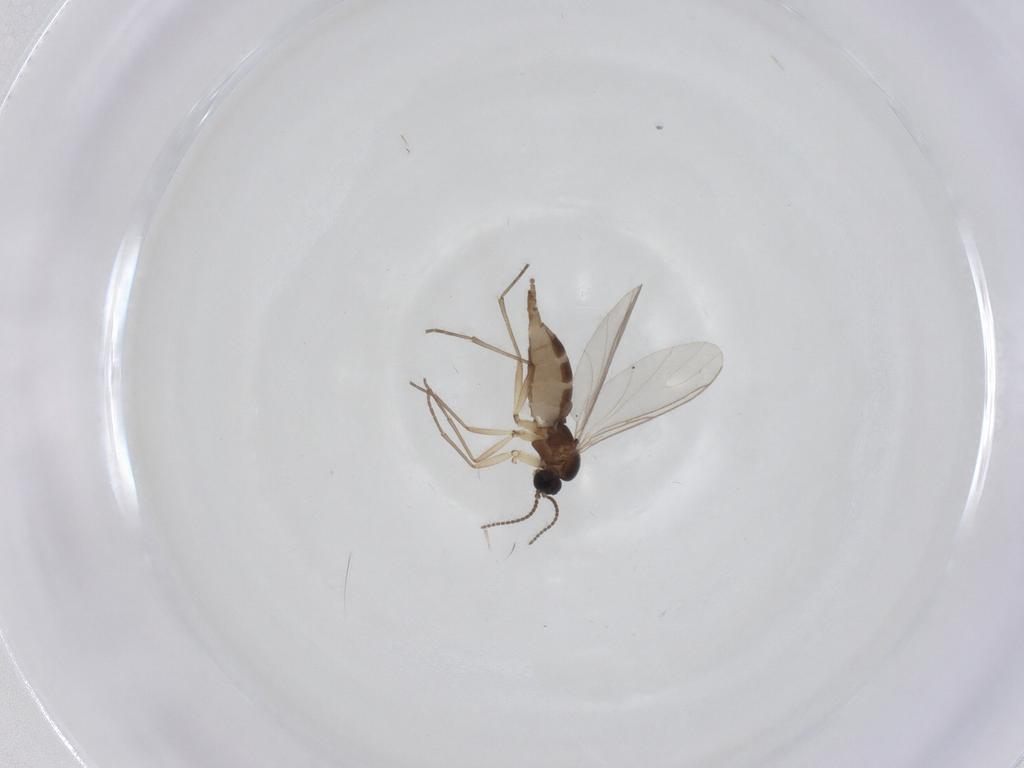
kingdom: Animalia
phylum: Arthropoda
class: Insecta
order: Diptera
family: Sciaridae
